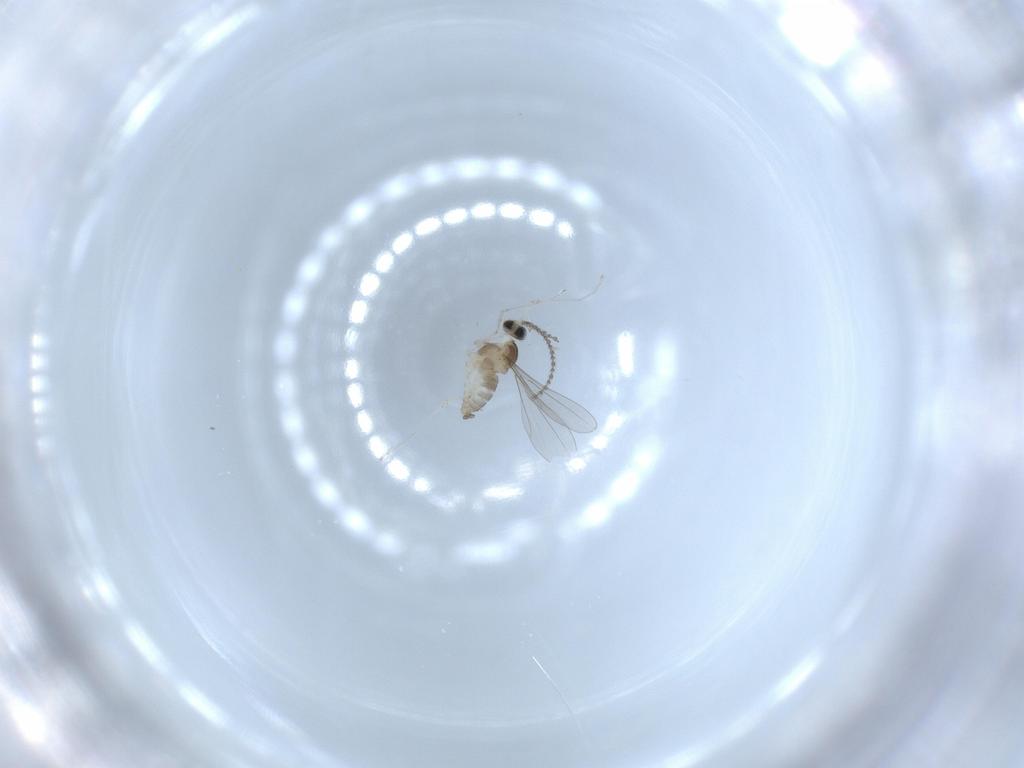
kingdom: Animalia
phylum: Arthropoda
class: Insecta
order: Diptera
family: Cecidomyiidae
